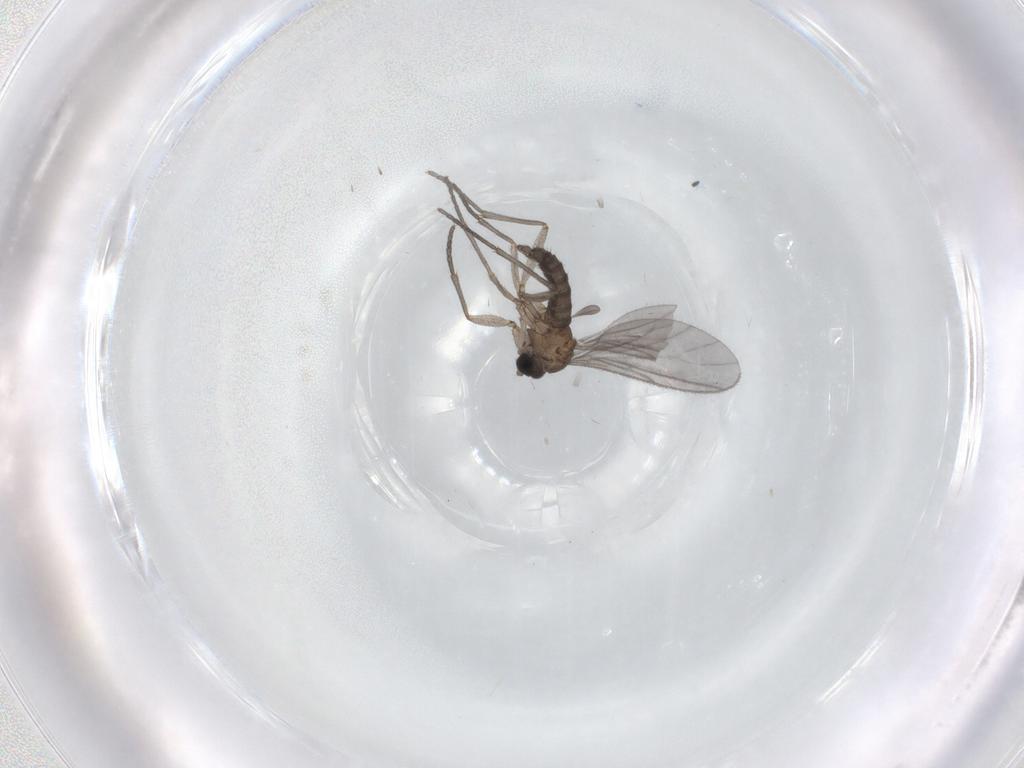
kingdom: Animalia
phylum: Arthropoda
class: Insecta
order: Diptera
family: Sciaridae
